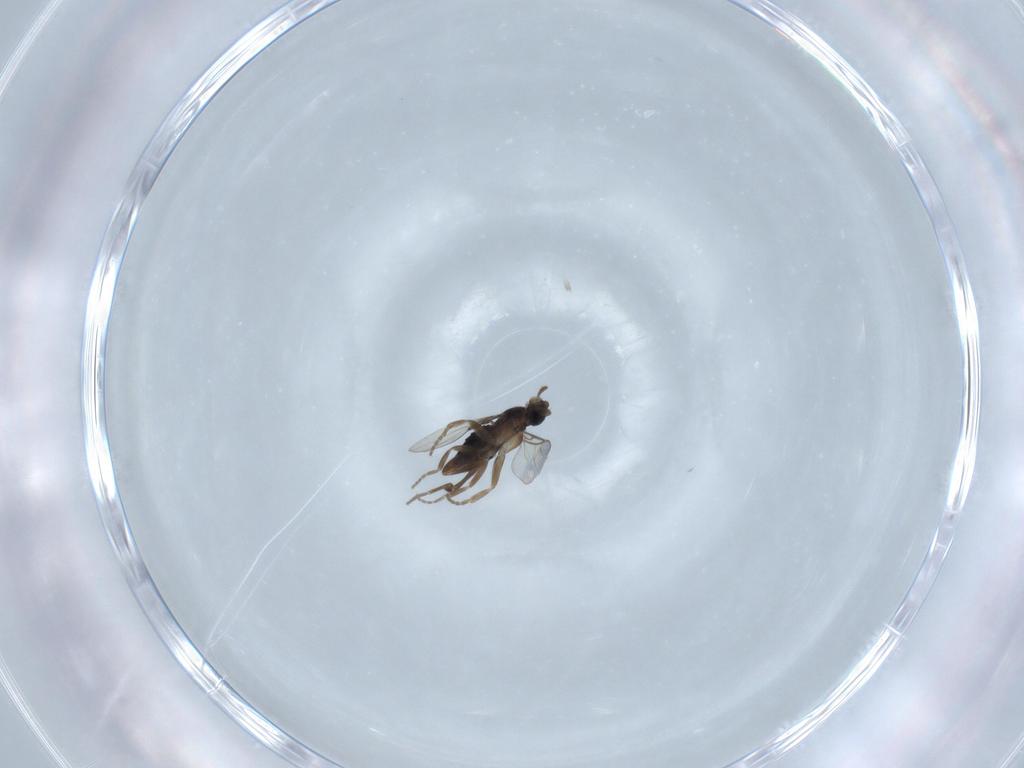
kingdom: Animalia
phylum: Arthropoda
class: Insecta
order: Diptera
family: Phoridae
